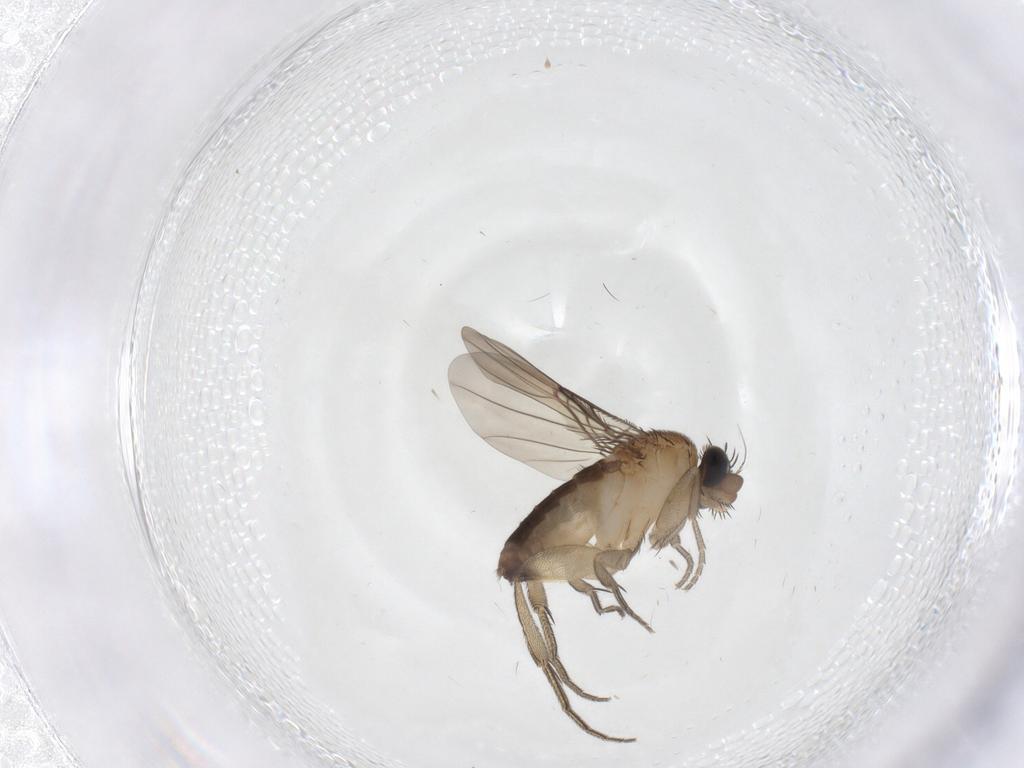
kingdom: Animalia
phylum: Arthropoda
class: Insecta
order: Diptera
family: Phoridae
